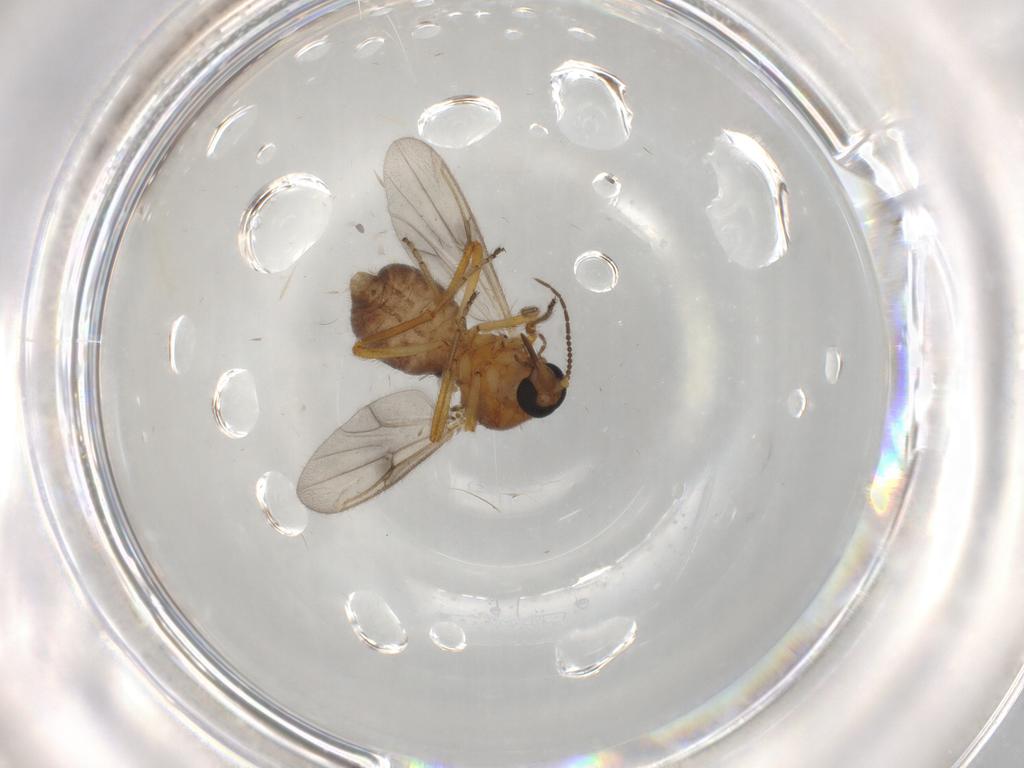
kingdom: Animalia
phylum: Arthropoda
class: Insecta
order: Diptera
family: Ceratopogonidae
